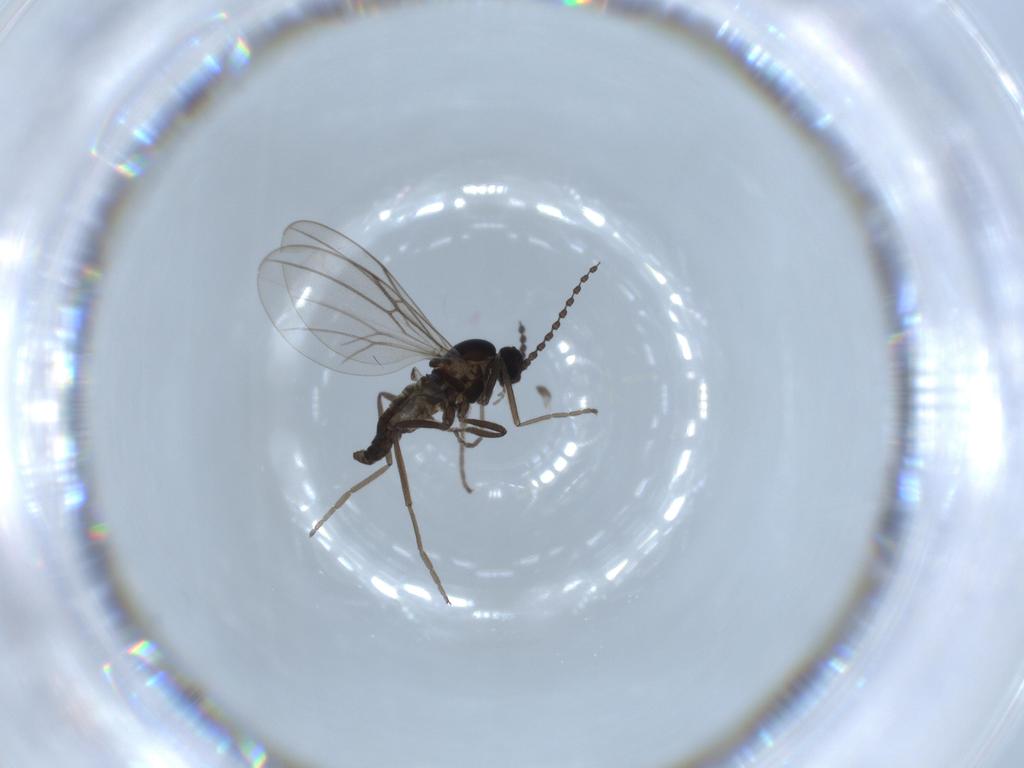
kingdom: Animalia
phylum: Arthropoda
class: Insecta
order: Diptera
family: Cecidomyiidae
